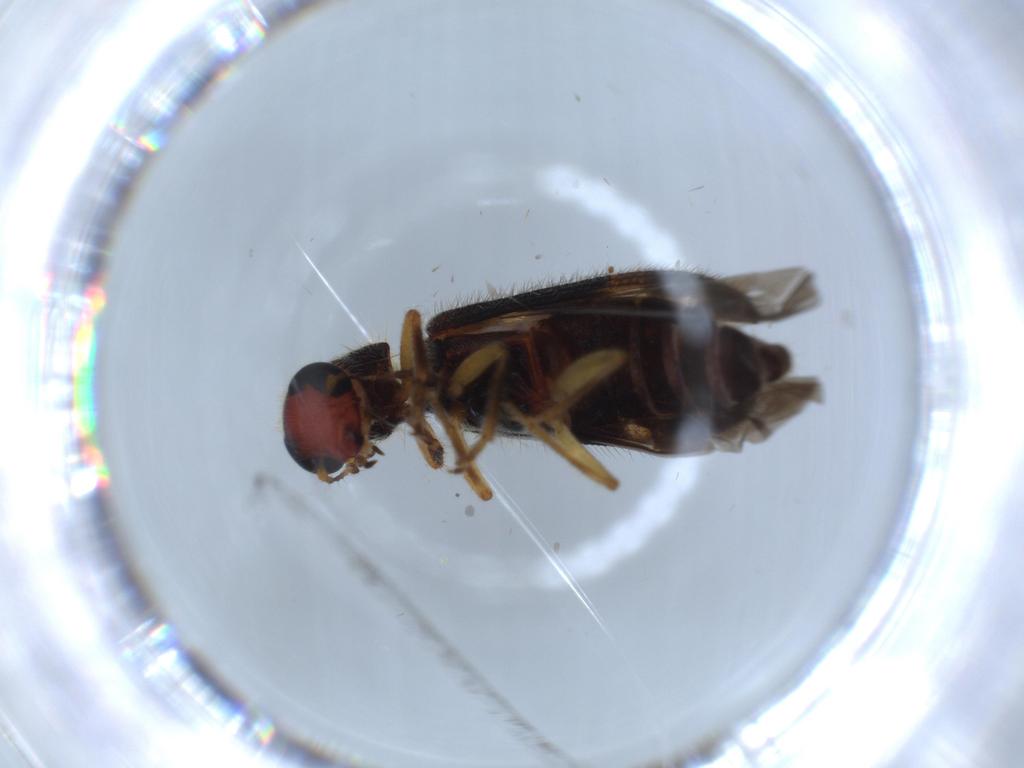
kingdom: Animalia
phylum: Arthropoda
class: Insecta
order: Coleoptera
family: Cleridae
